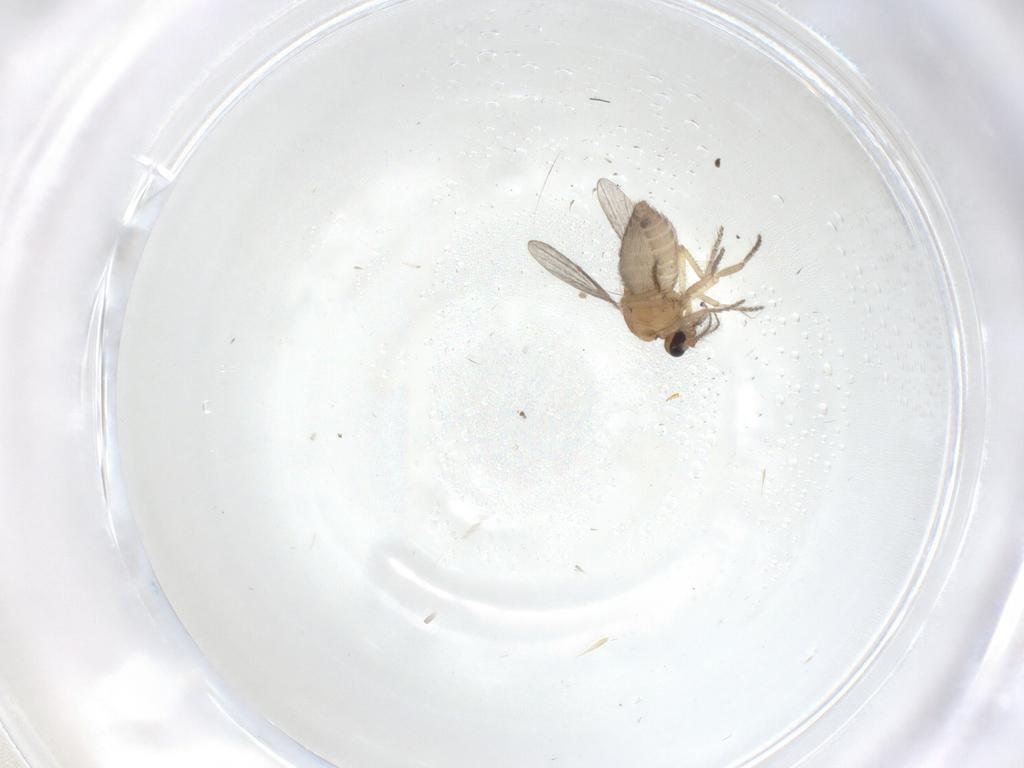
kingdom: Animalia
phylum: Arthropoda
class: Insecta
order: Diptera
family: Ceratopogonidae
